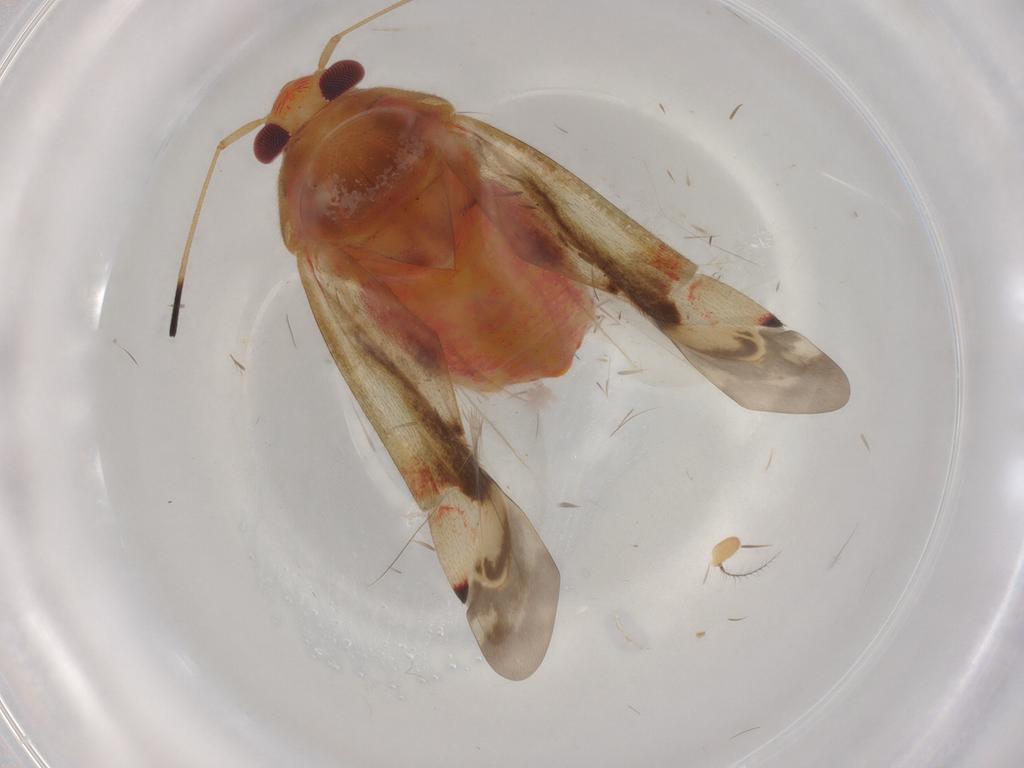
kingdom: Animalia
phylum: Arthropoda
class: Insecta
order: Hemiptera
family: Miridae
